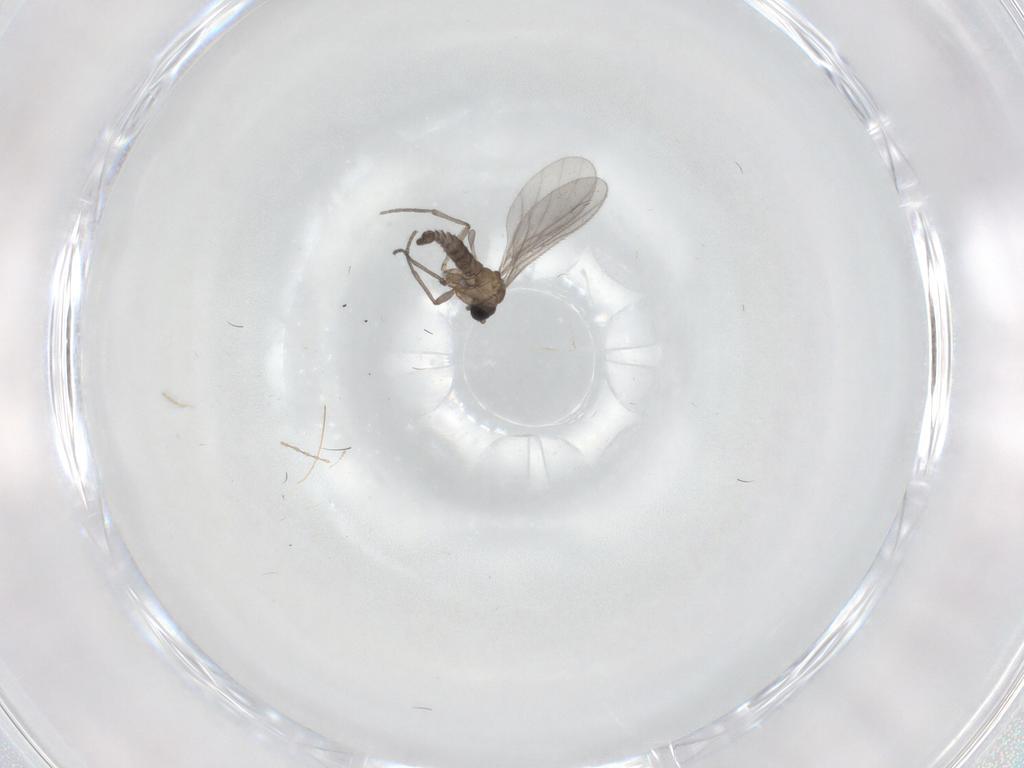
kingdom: Animalia
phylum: Arthropoda
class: Insecta
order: Diptera
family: Sciaridae
